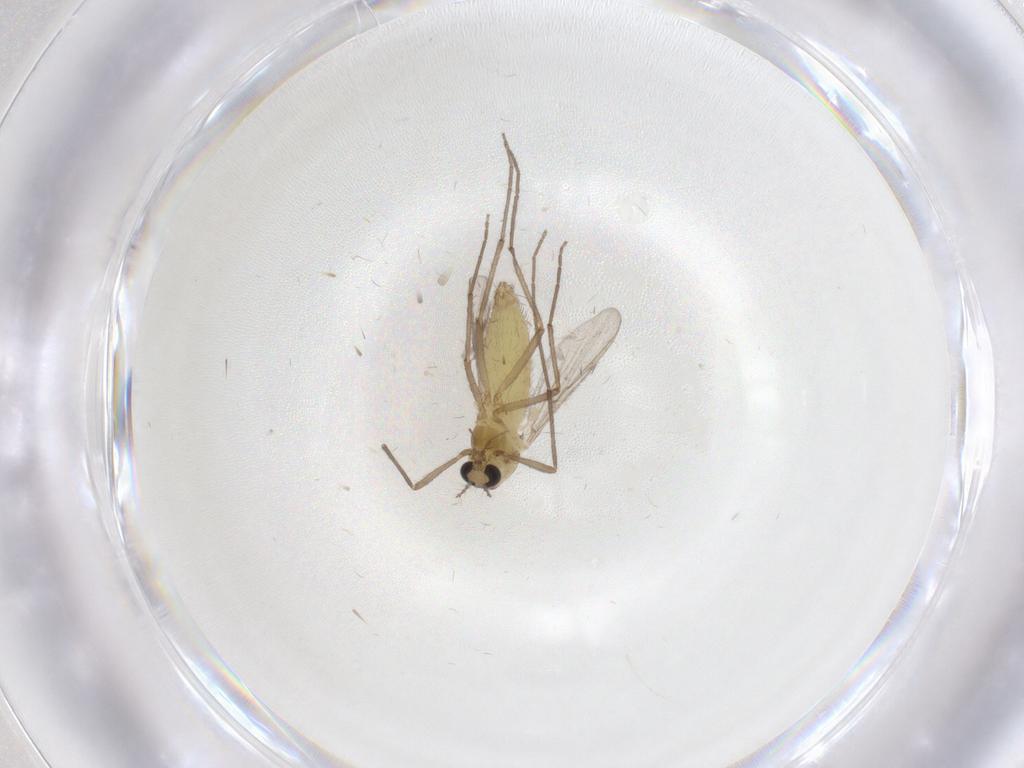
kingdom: Animalia
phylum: Arthropoda
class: Insecta
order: Diptera
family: Chironomidae
